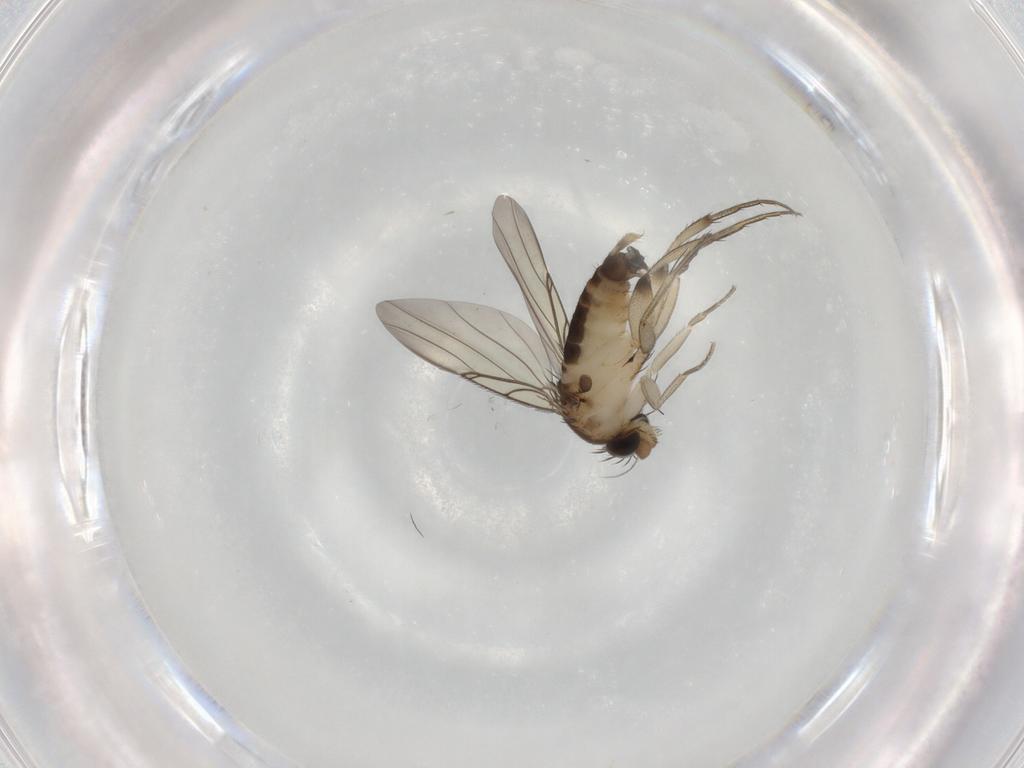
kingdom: Animalia
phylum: Arthropoda
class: Insecta
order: Diptera
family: Phoridae
